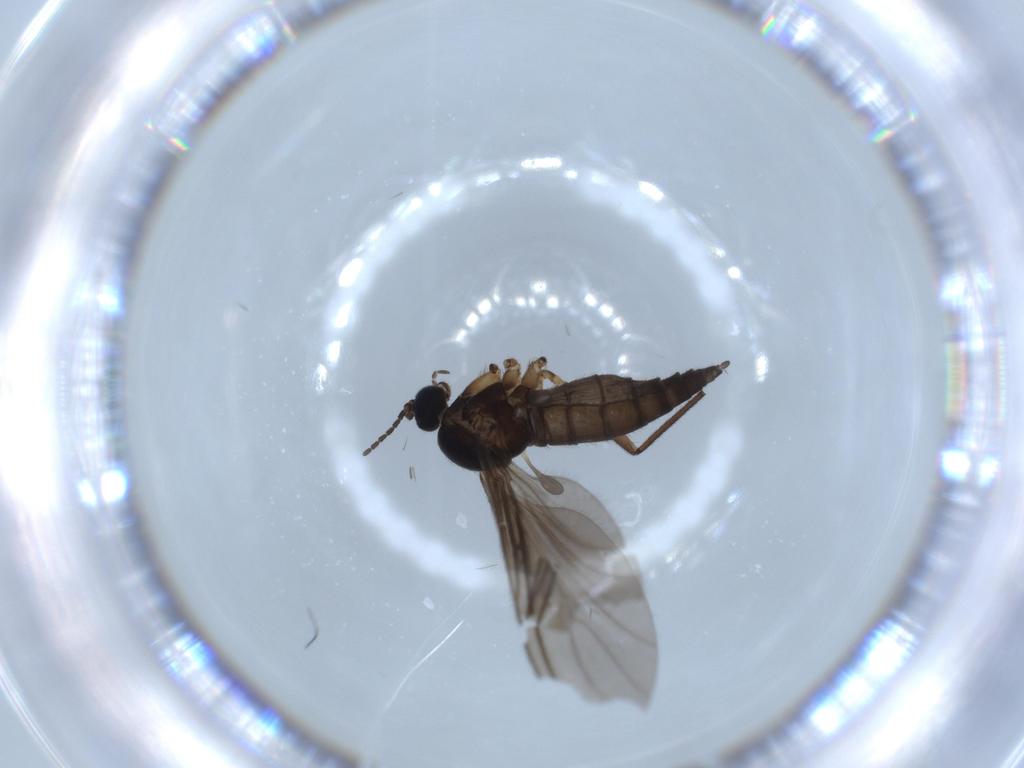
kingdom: Animalia
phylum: Arthropoda
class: Insecta
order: Diptera
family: Sciaridae
